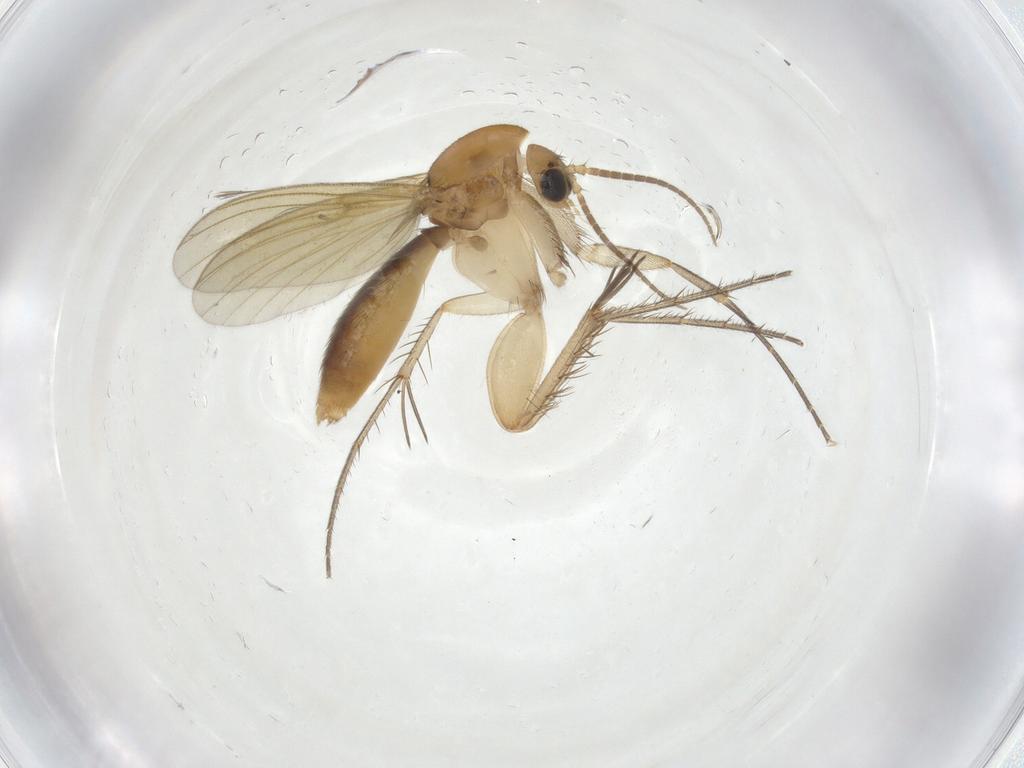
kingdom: Animalia
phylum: Arthropoda
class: Insecta
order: Diptera
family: Mycetophilidae
